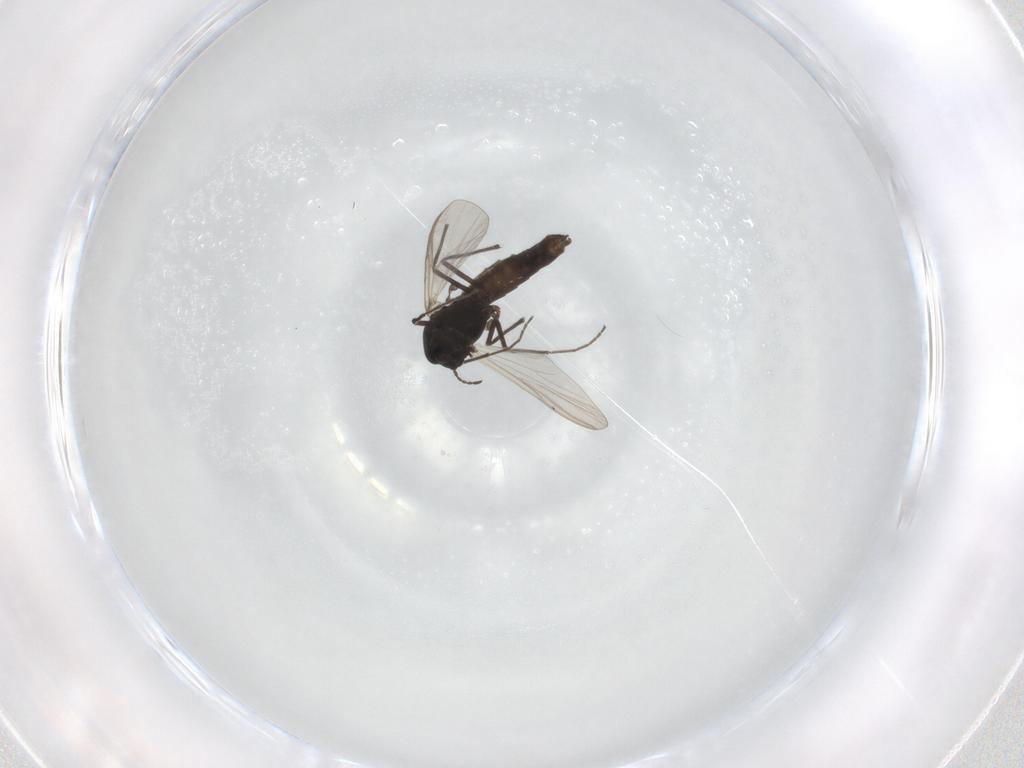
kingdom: Animalia
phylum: Arthropoda
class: Insecta
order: Diptera
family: Chironomidae
